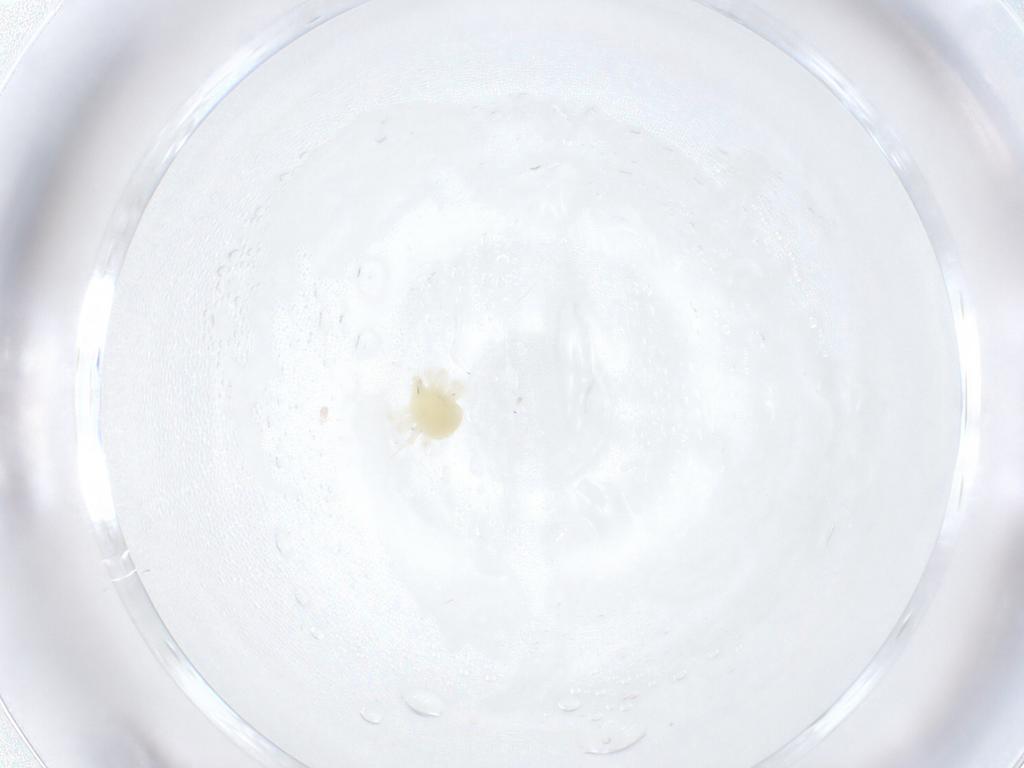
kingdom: Animalia
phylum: Arthropoda
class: Arachnida
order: Trombidiformes
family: Anystidae
